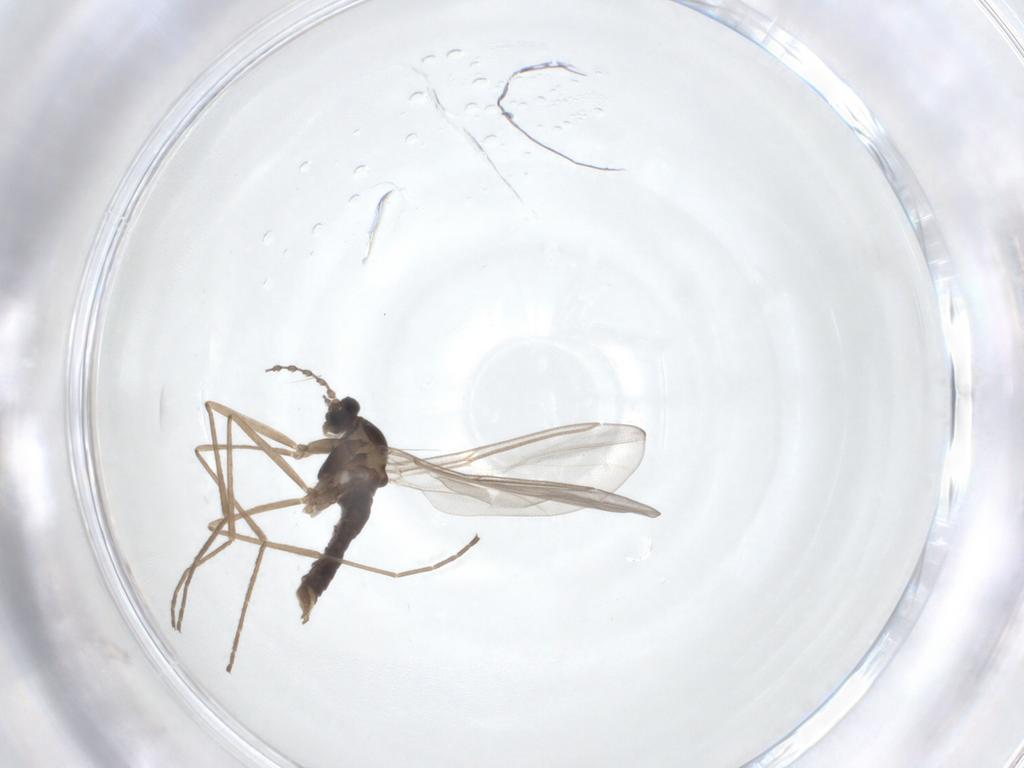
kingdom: Animalia
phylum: Arthropoda
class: Insecta
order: Diptera
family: Cecidomyiidae
